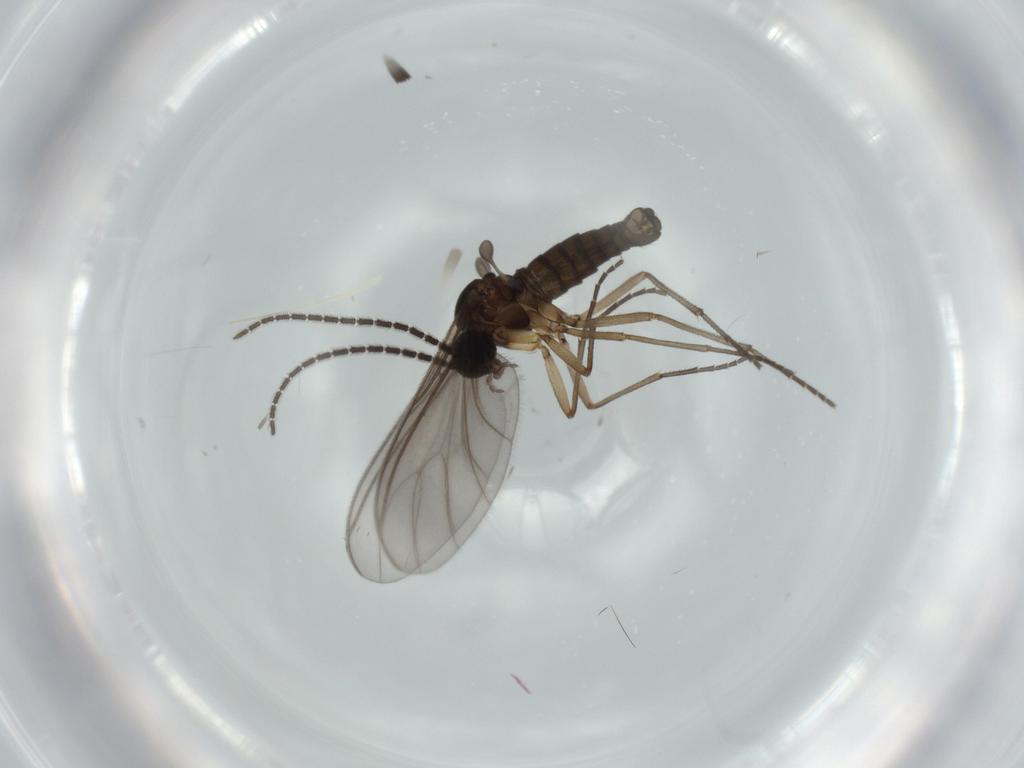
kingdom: Animalia
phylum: Arthropoda
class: Insecta
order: Diptera
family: Sciaridae
